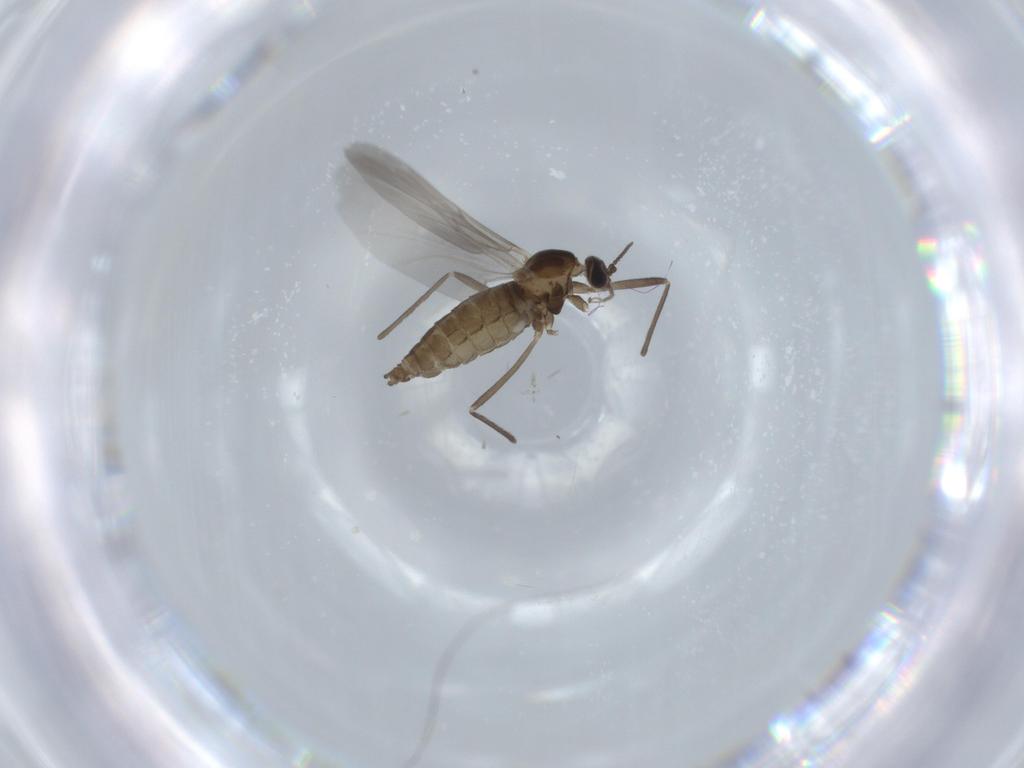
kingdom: Animalia
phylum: Arthropoda
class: Insecta
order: Diptera
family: Cecidomyiidae
